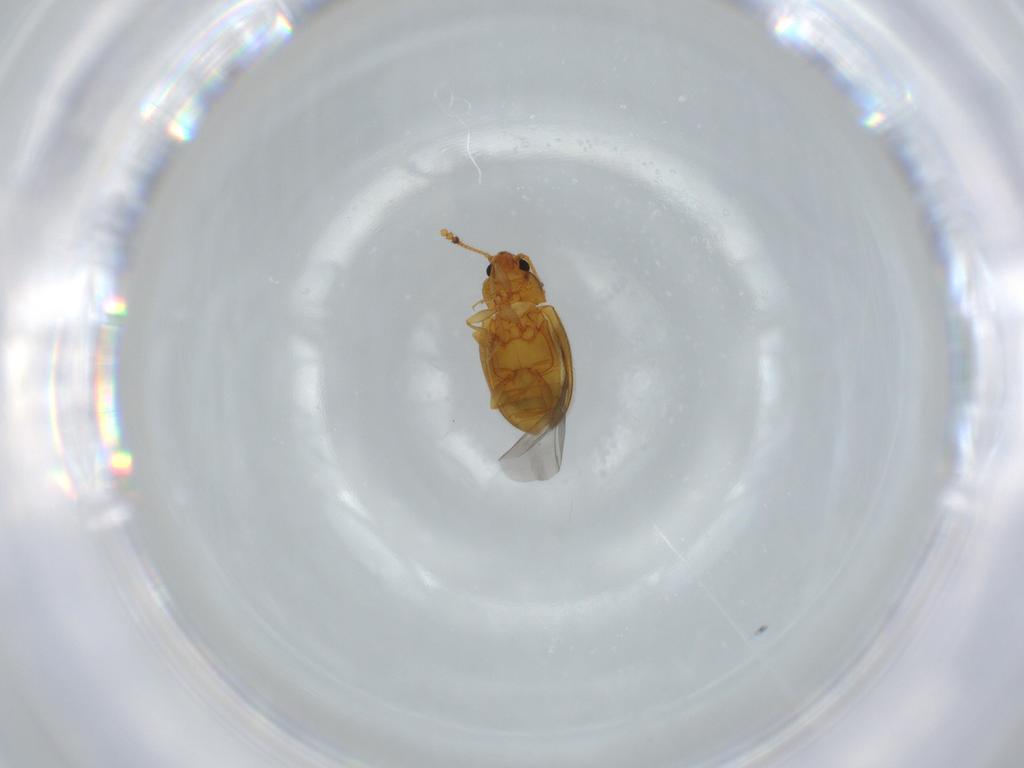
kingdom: Animalia
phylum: Arthropoda
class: Insecta
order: Coleoptera
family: Erotylidae
